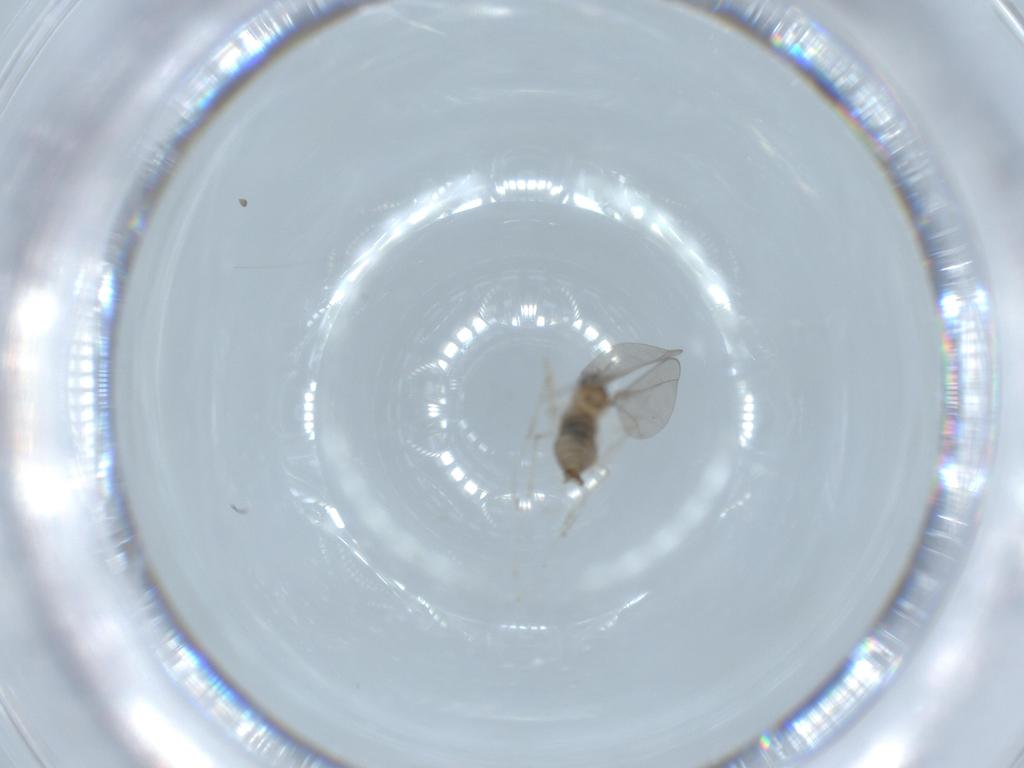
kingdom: Animalia
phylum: Arthropoda
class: Insecta
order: Diptera
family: Cecidomyiidae
